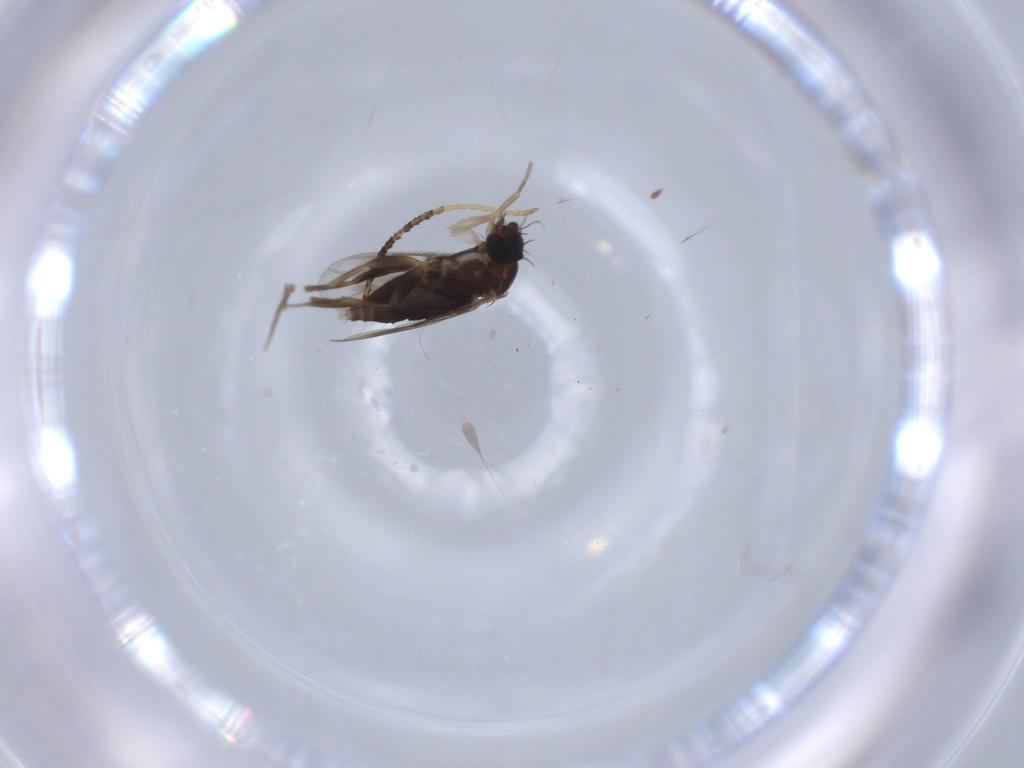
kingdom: Animalia
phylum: Arthropoda
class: Insecta
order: Diptera
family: Phoridae
